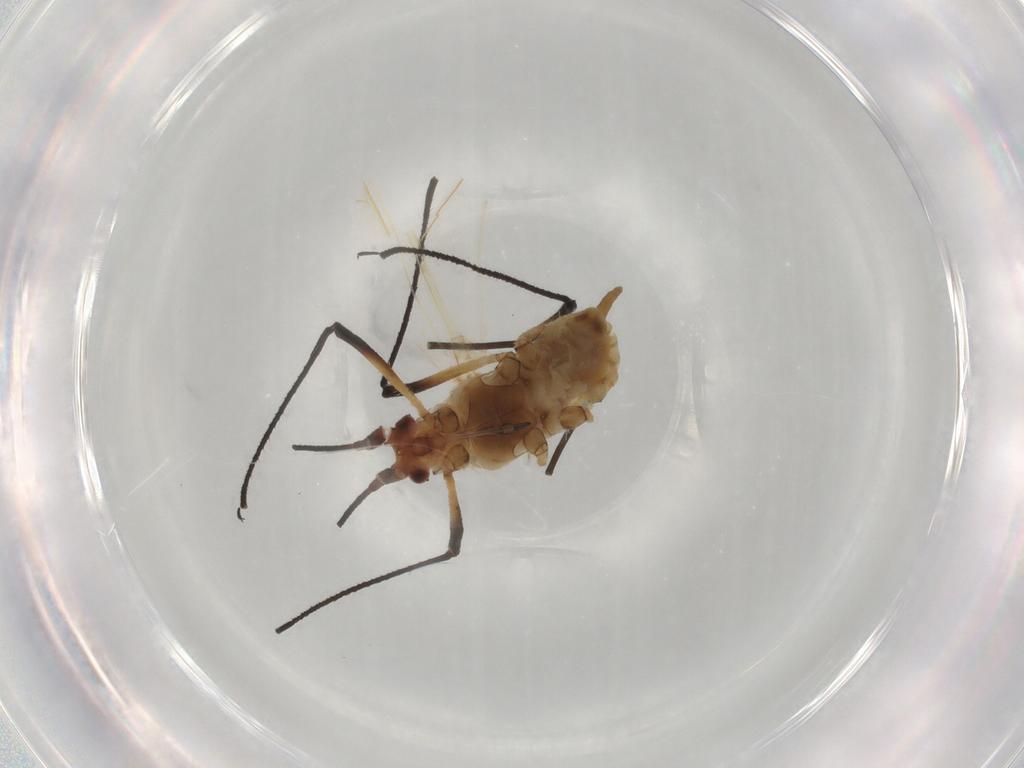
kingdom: Animalia
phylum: Arthropoda
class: Insecta
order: Hemiptera
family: Aphididae
